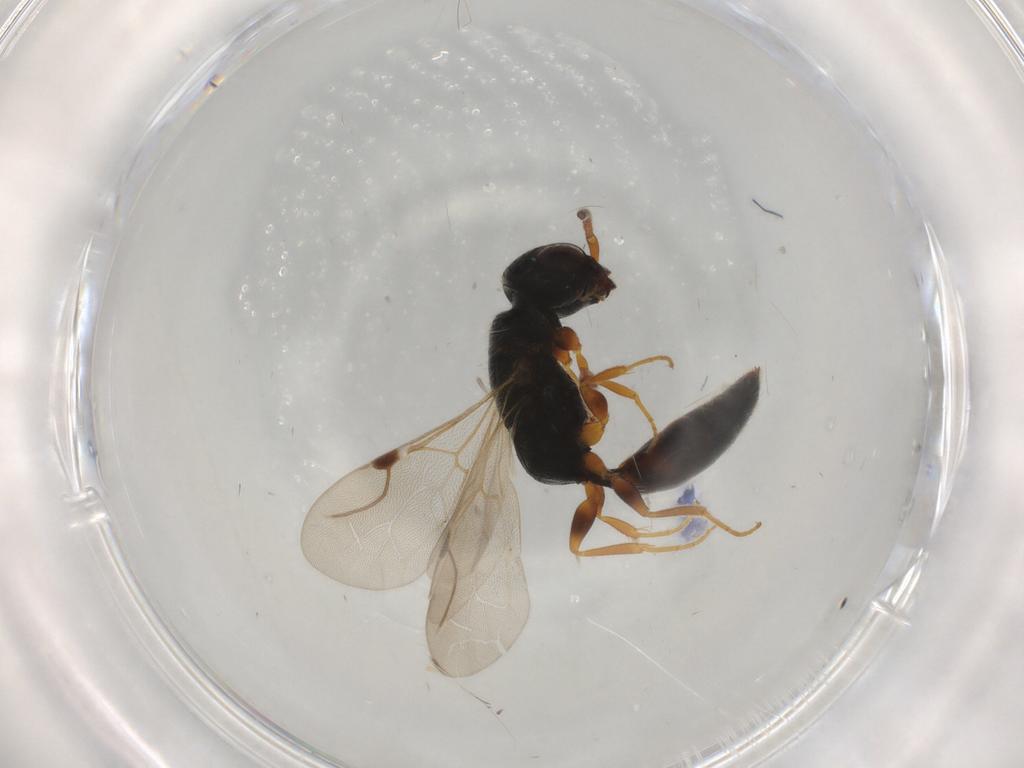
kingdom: Animalia
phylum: Arthropoda
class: Insecta
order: Hymenoptera
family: Bethylidae
